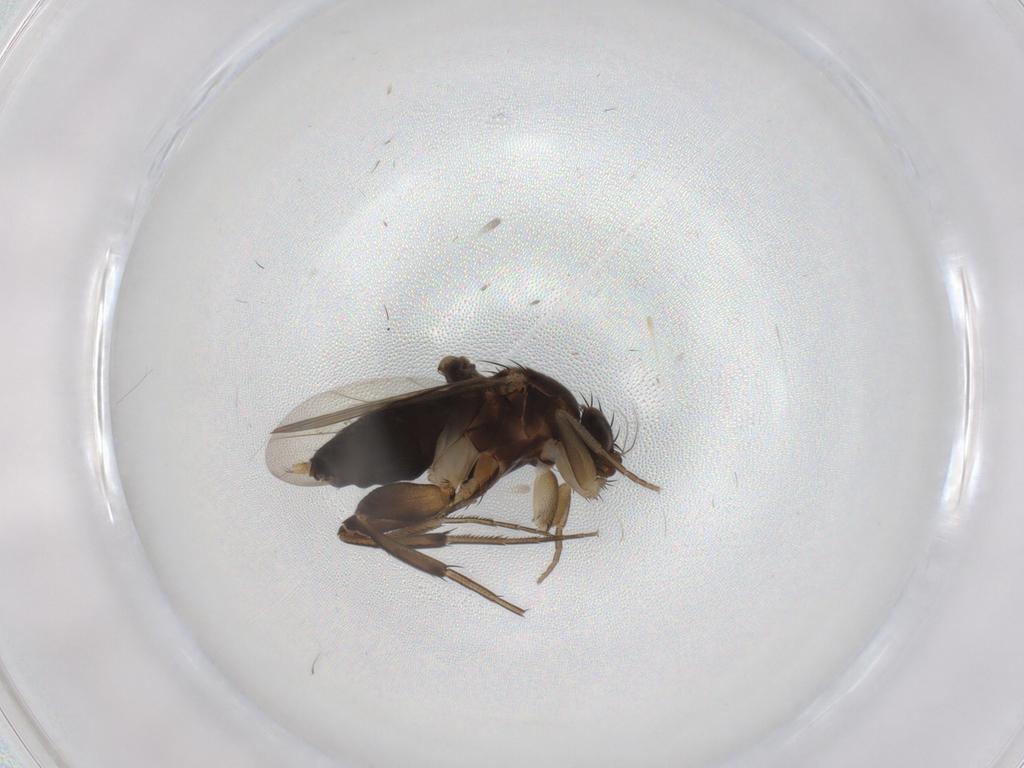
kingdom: Animalia
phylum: Arthropoda
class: Insecta
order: Diptera
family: Phoridae
